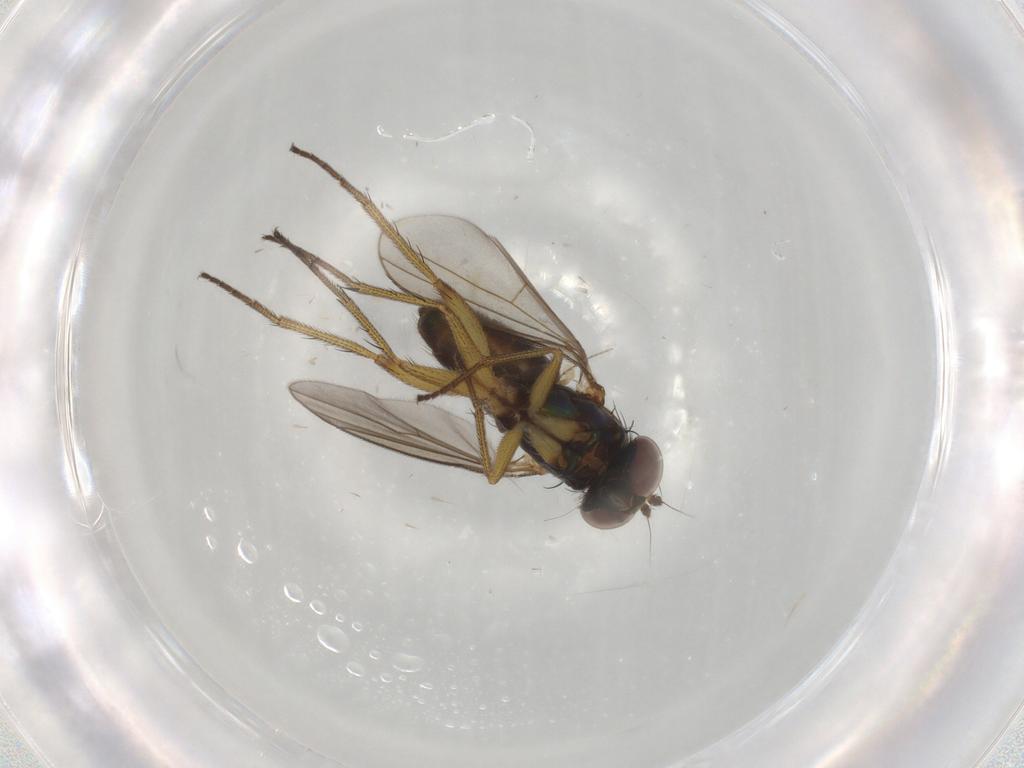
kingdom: Animalia
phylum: Arthropoda
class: Insecta
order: Diptera
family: Dolichopodidae
